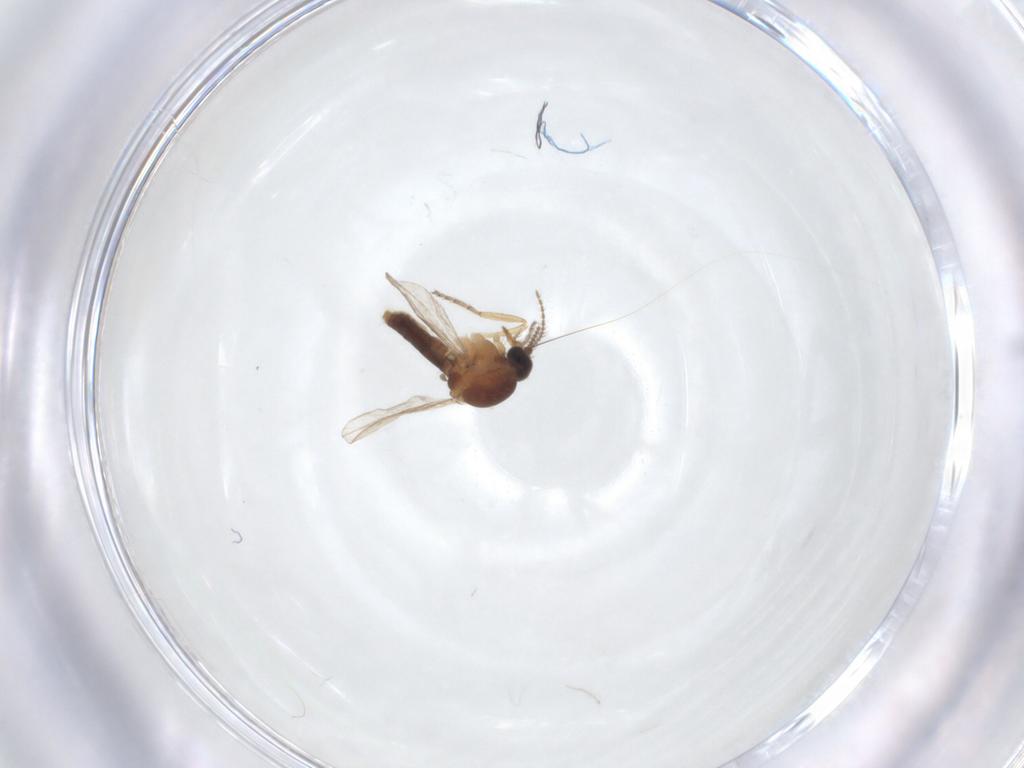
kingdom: Animalia
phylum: Arthropoda
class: Insecta
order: Diptera
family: Ceratopogonidae
